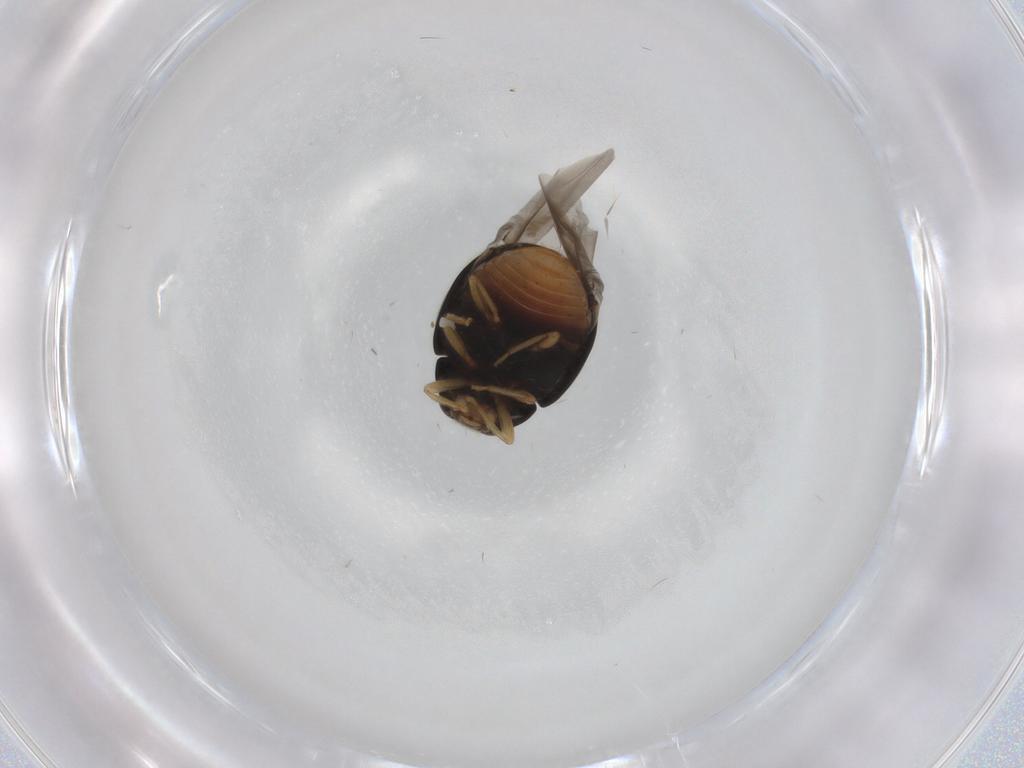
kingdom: Animalia
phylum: Arthropoda
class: Insecta
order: Coleoptera
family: Coccinellidae
